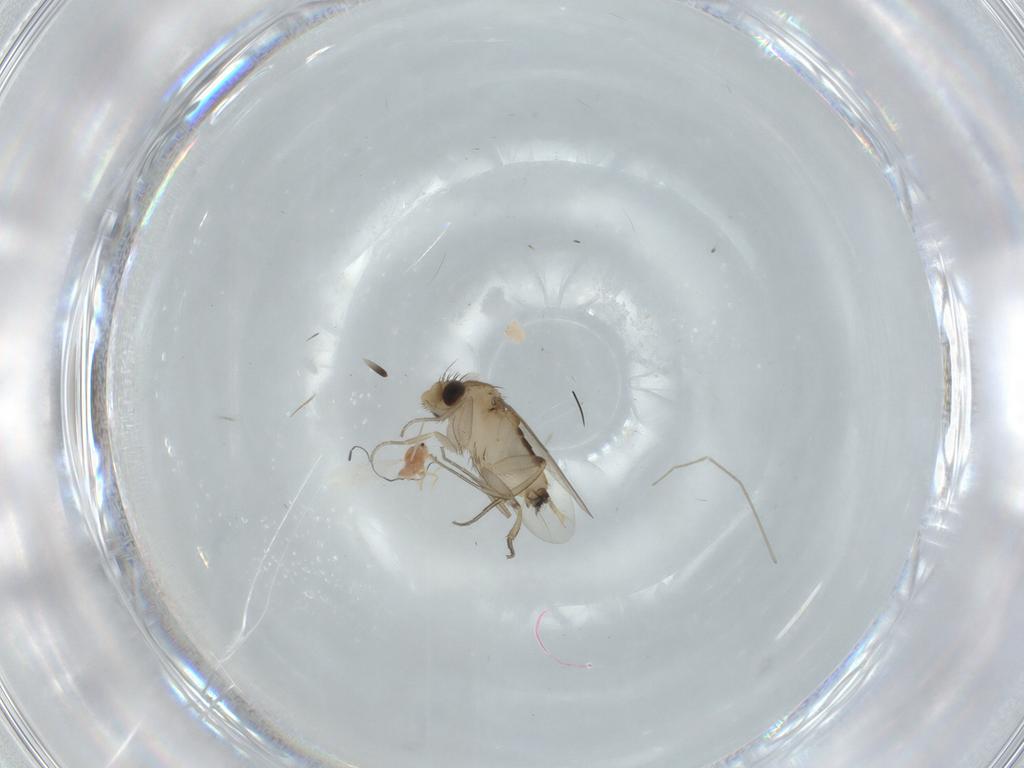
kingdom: Animalia
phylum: Arthropoda
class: Insecta
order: Diptera
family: Phoridae
